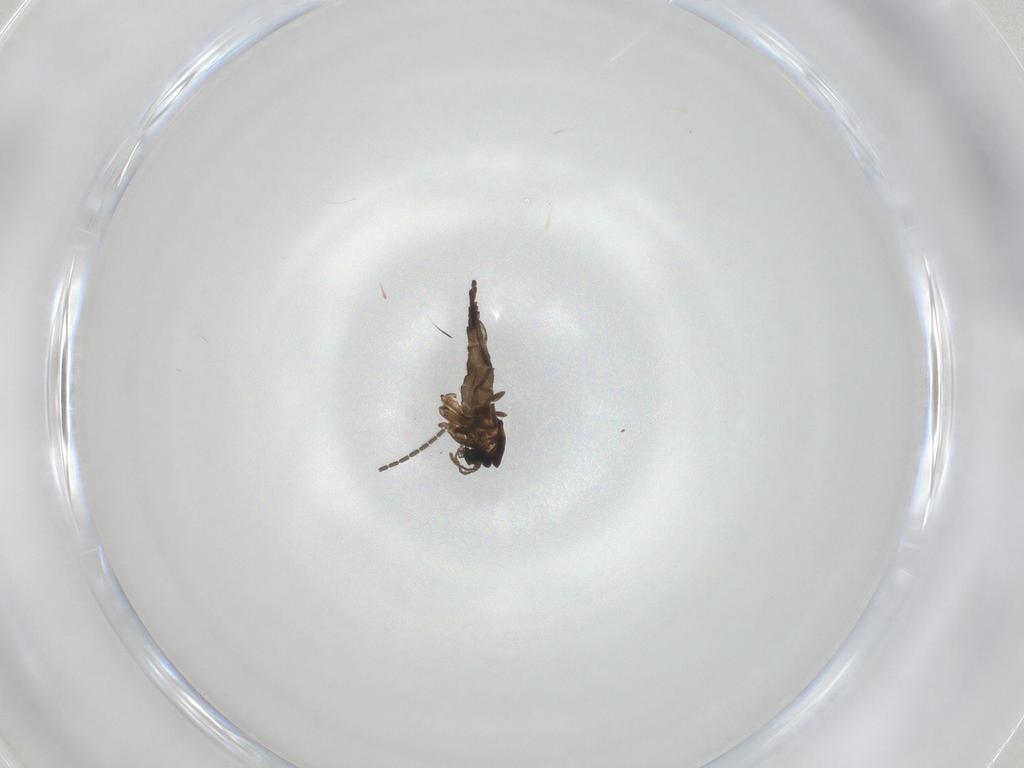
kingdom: Animalia
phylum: Arthropoda
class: Insecta
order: Diptera
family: Sciaridae
